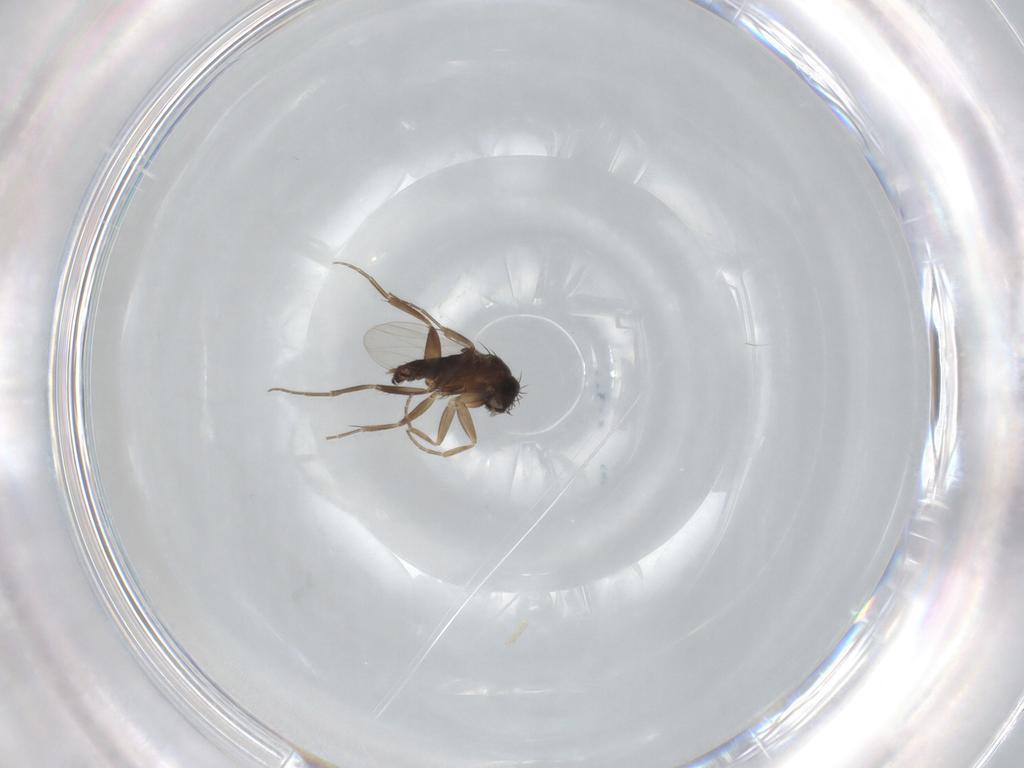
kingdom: Animalia
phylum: Arthropoda
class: Insecta
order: Diptera
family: Phoridae
